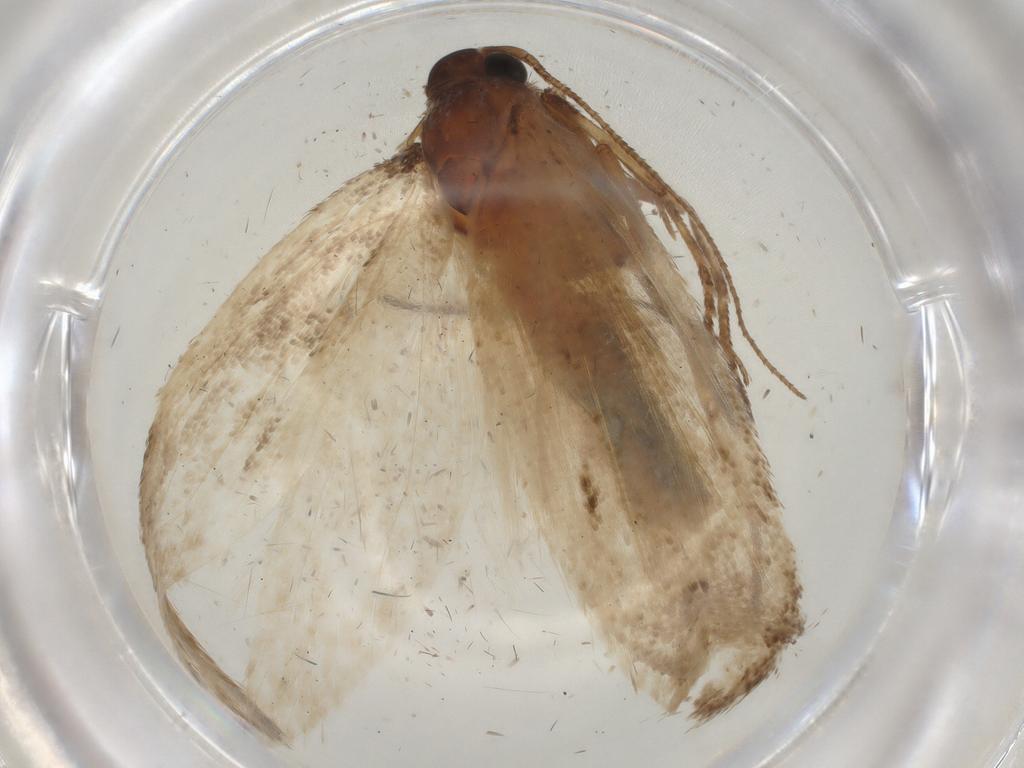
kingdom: Animalia
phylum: Arthropoda
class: Insecta
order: Lepidoptera
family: Cosmopterigidae
